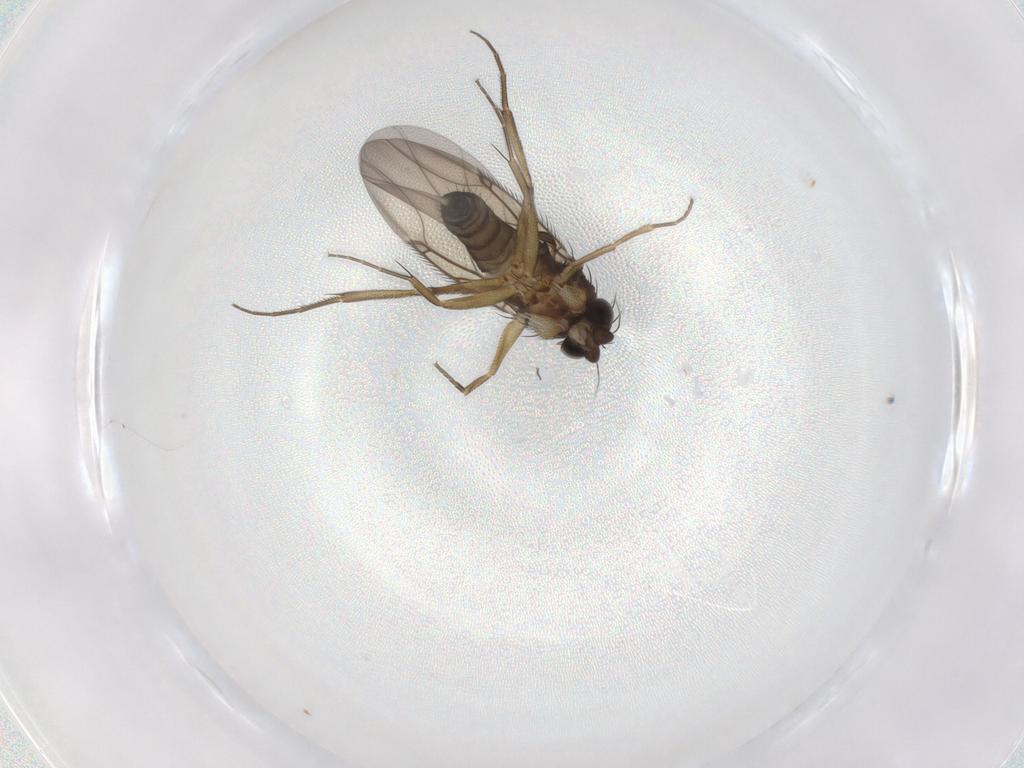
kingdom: Animalia
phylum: Arthropoda
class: Insecta
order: Diptera
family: Phoridae
